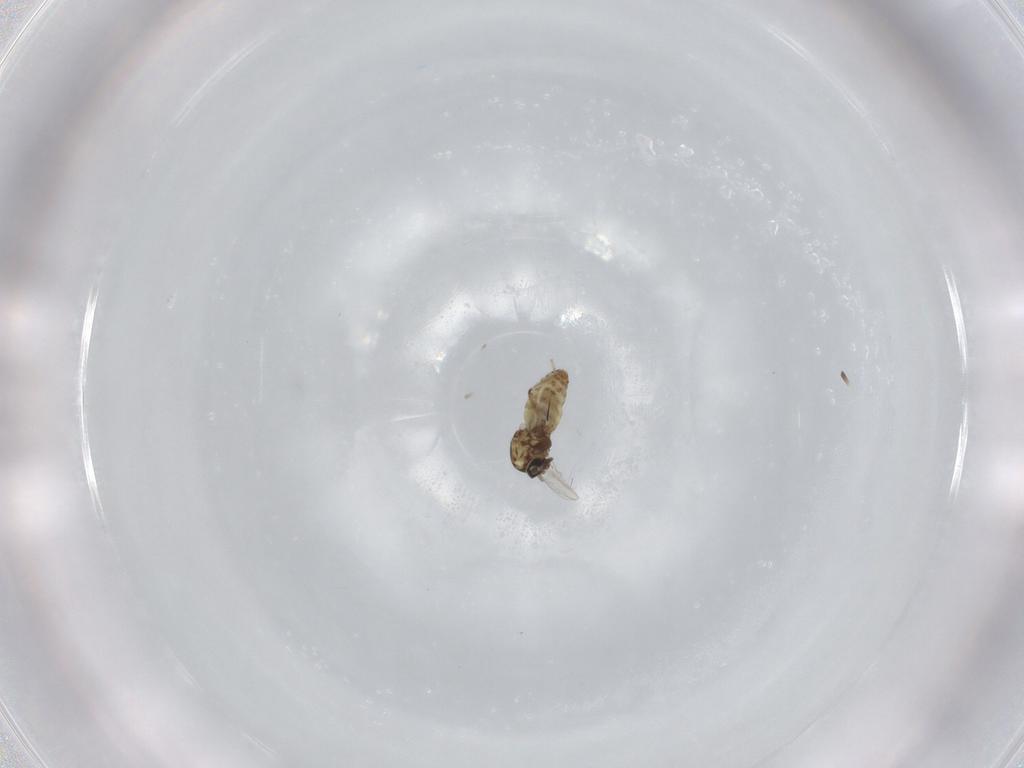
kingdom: Animalia
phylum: Arthropoda
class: Insecta
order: Diptera
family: Ceratopogonidae
